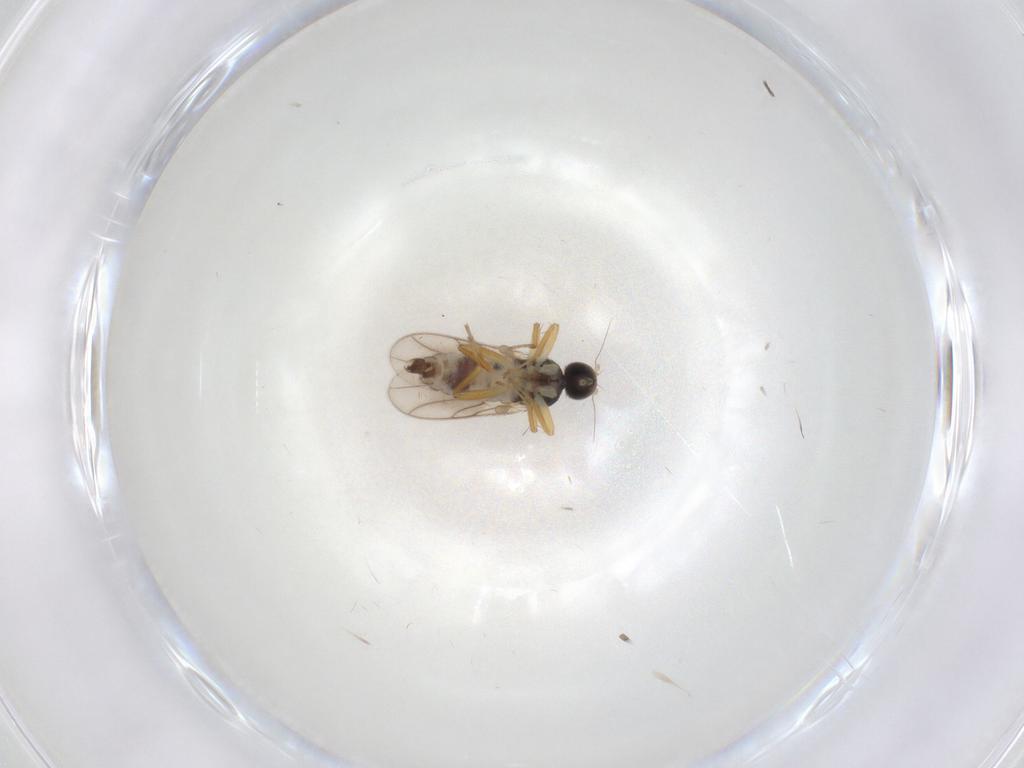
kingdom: Animalia
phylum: Arthropoda
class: Insecta
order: Diptera
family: Hybotidae
